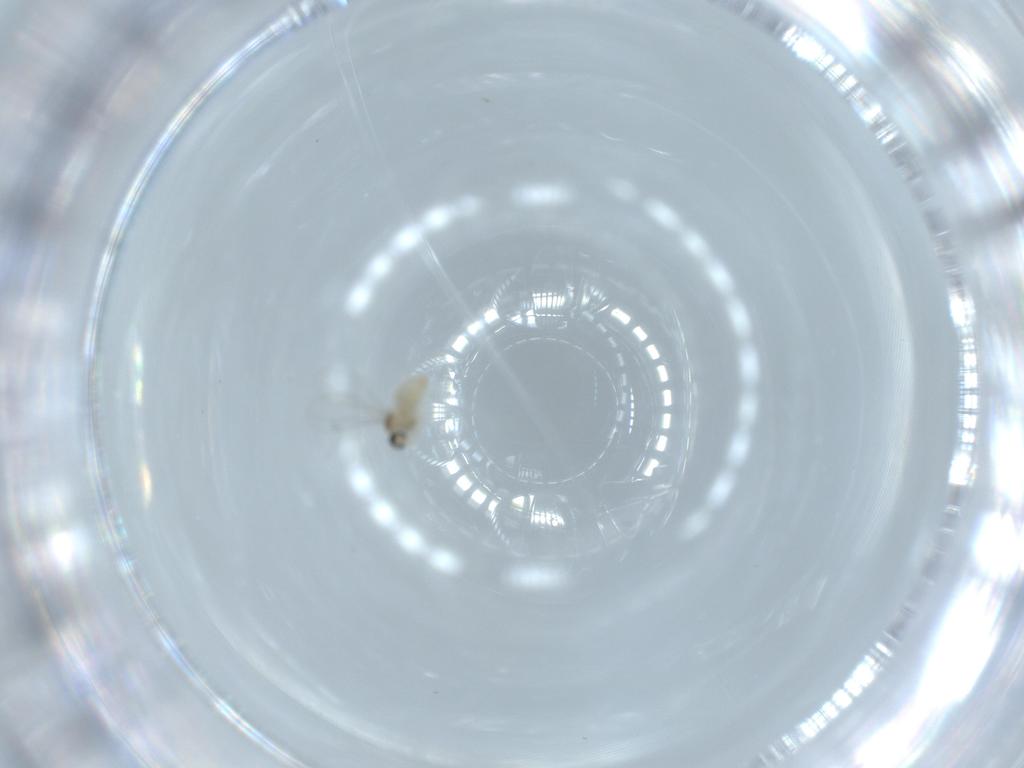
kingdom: Animalia
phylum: Arthropoda
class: Insecta
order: Diptera
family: Cecidomyiidae
